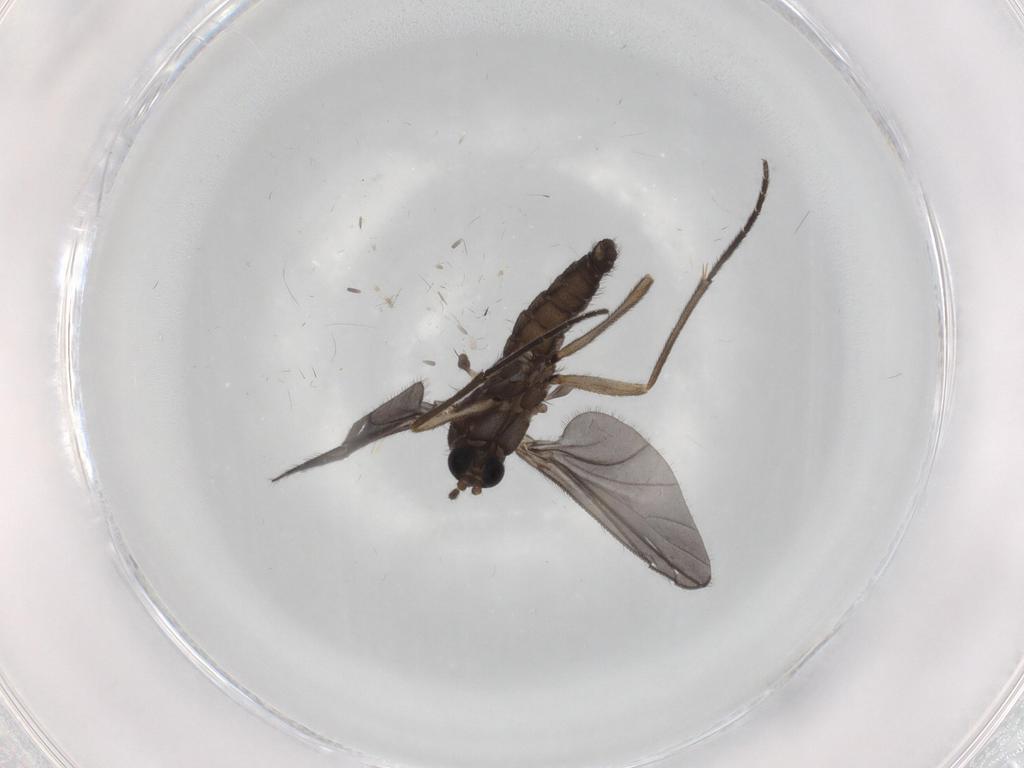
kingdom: Animalia
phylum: Arthropoda
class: Insecta
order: Diptera
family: Sciaridae
